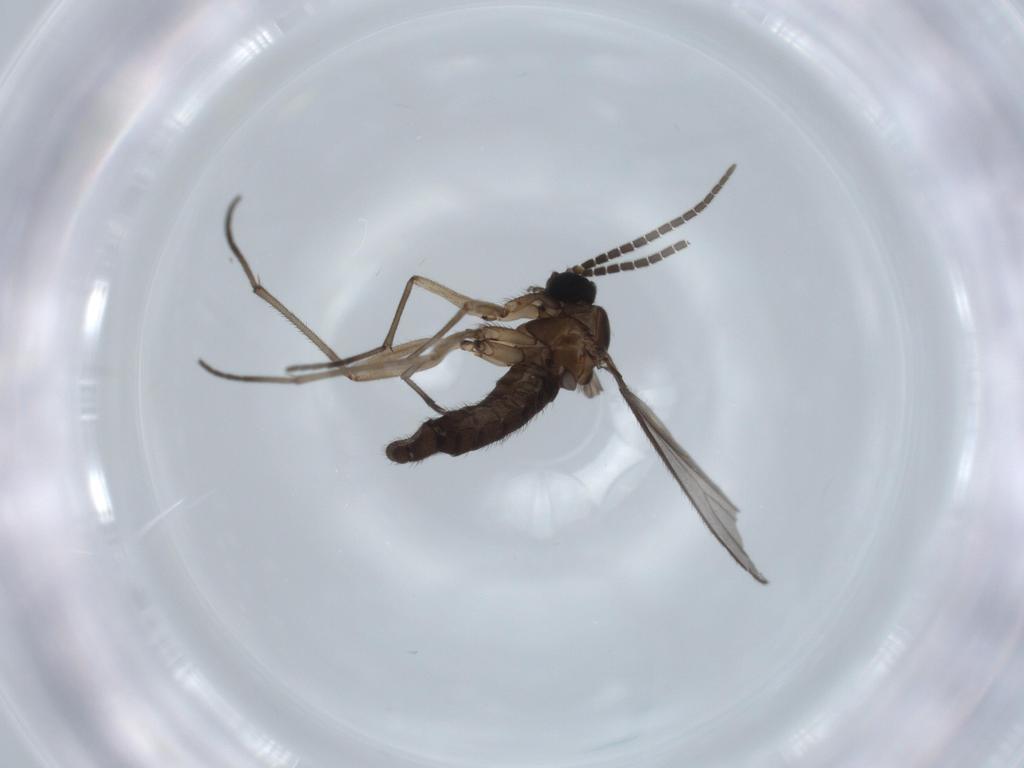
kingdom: Animalia
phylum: Arthropoda
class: Insecta
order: Diptera
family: Sciaridae
